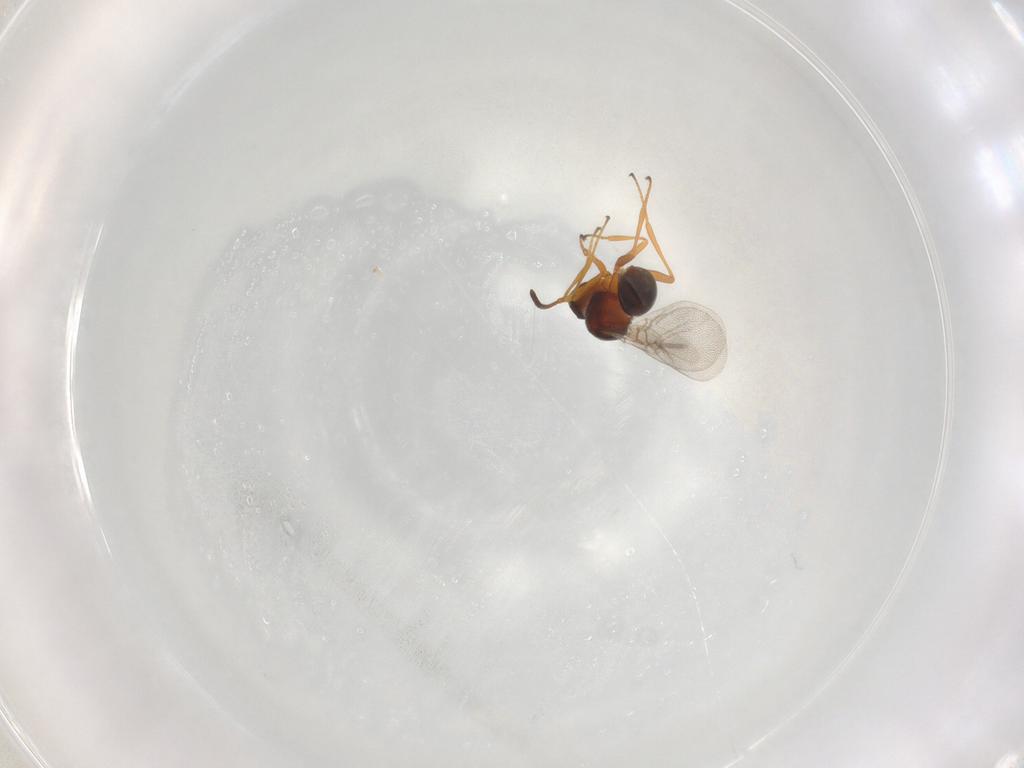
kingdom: Animalia
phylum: Arthropoda
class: Insecta
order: Hymenoptera
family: Figitidae
